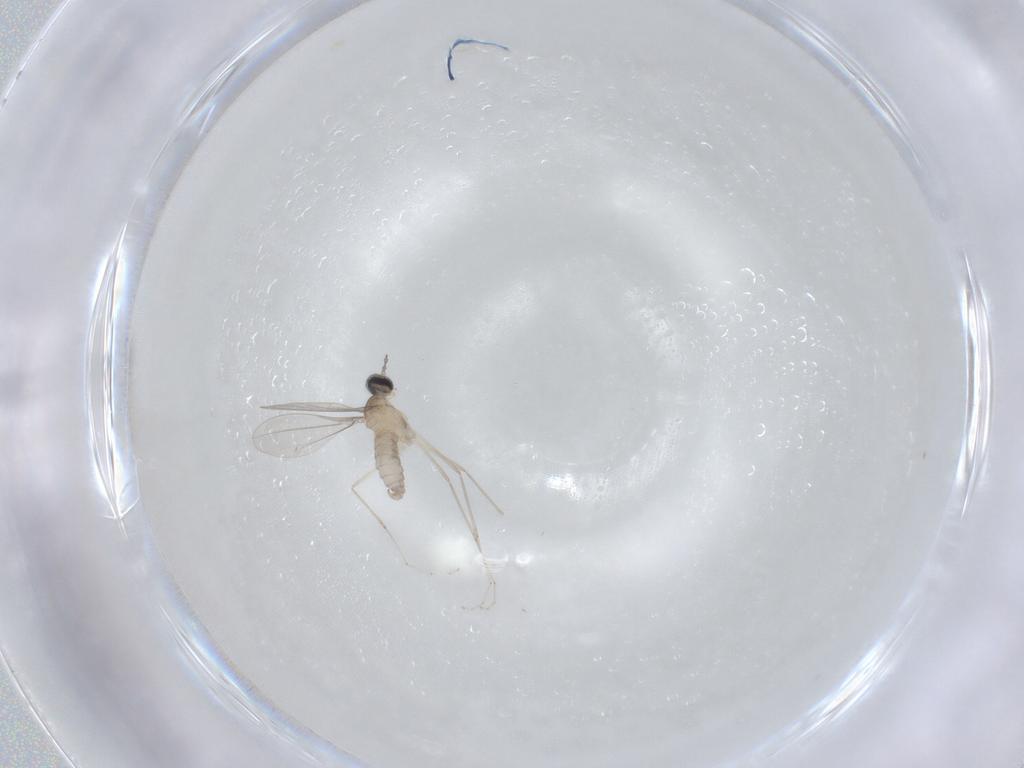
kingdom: Animalia
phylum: Arthropoda
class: Insecta
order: Diptera
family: Cecidomyiidae
